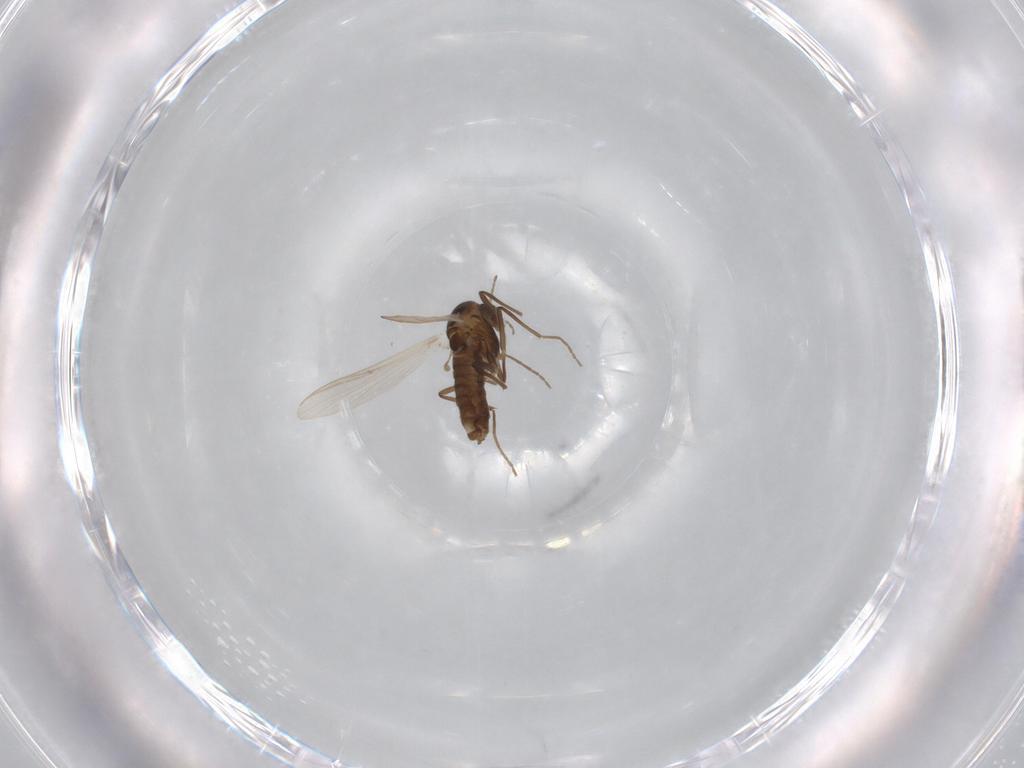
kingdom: Animalia
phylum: Arthropoda
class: Insecta
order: Diptera
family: Chironomidae
